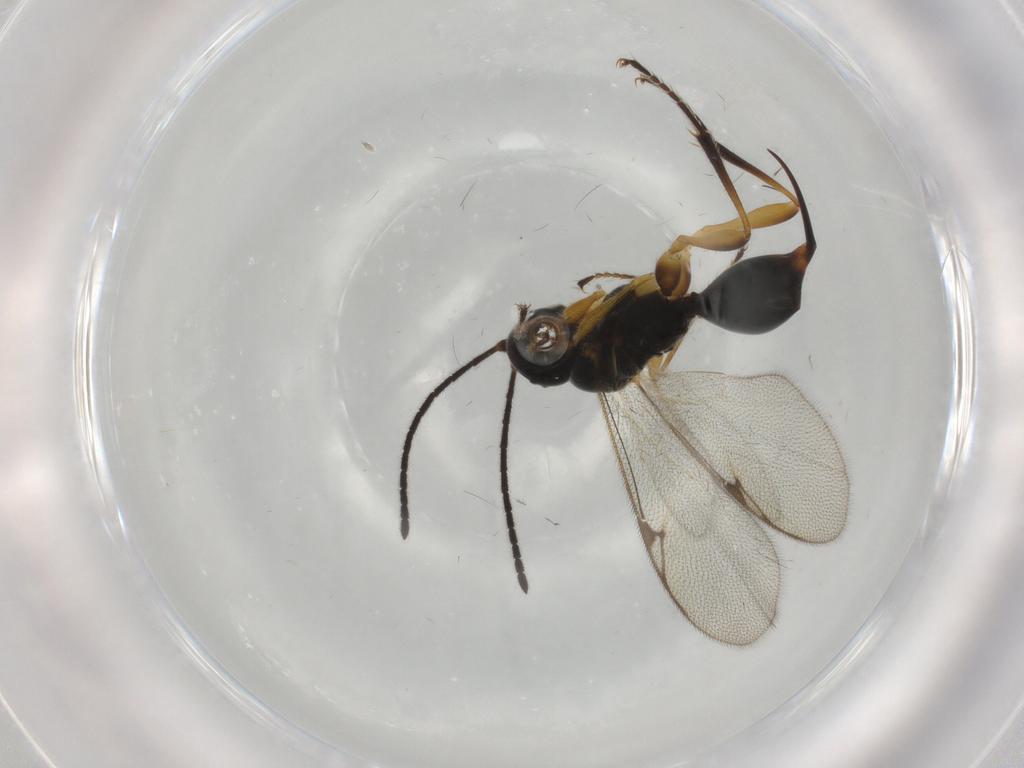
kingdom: Animalia
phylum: Arthropoda
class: Insecta
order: Hymenoptera
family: Proctotrupidae
